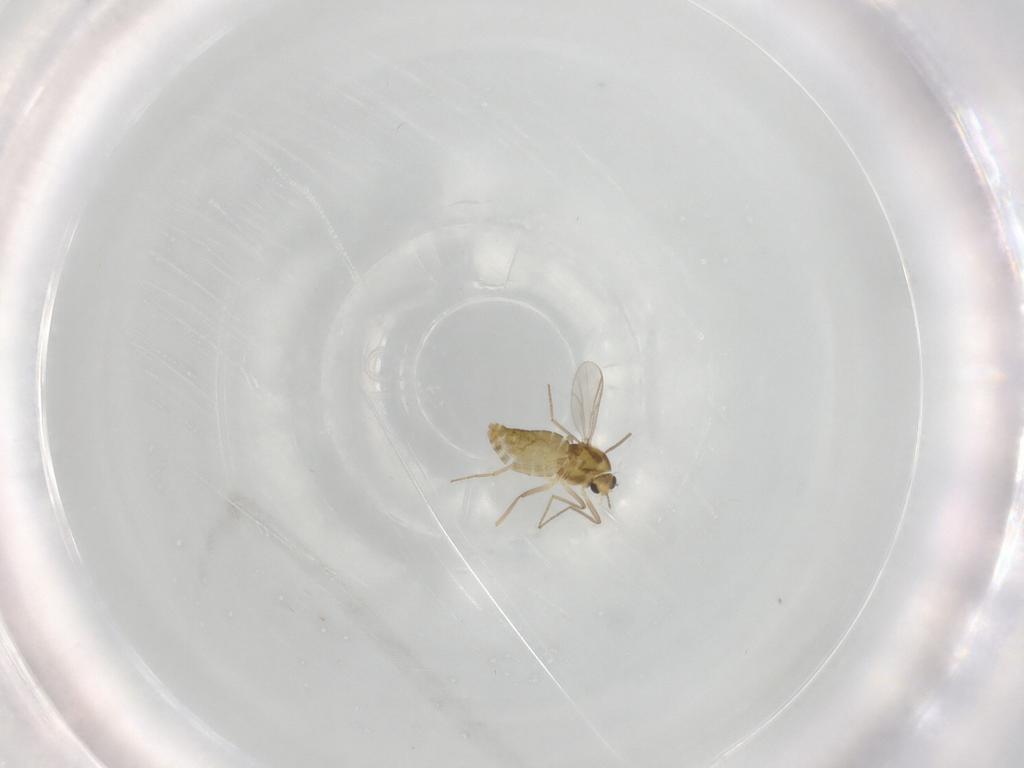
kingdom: Animalia
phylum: Arthropoda
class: Insecta
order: Diptera
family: Chironomidae
